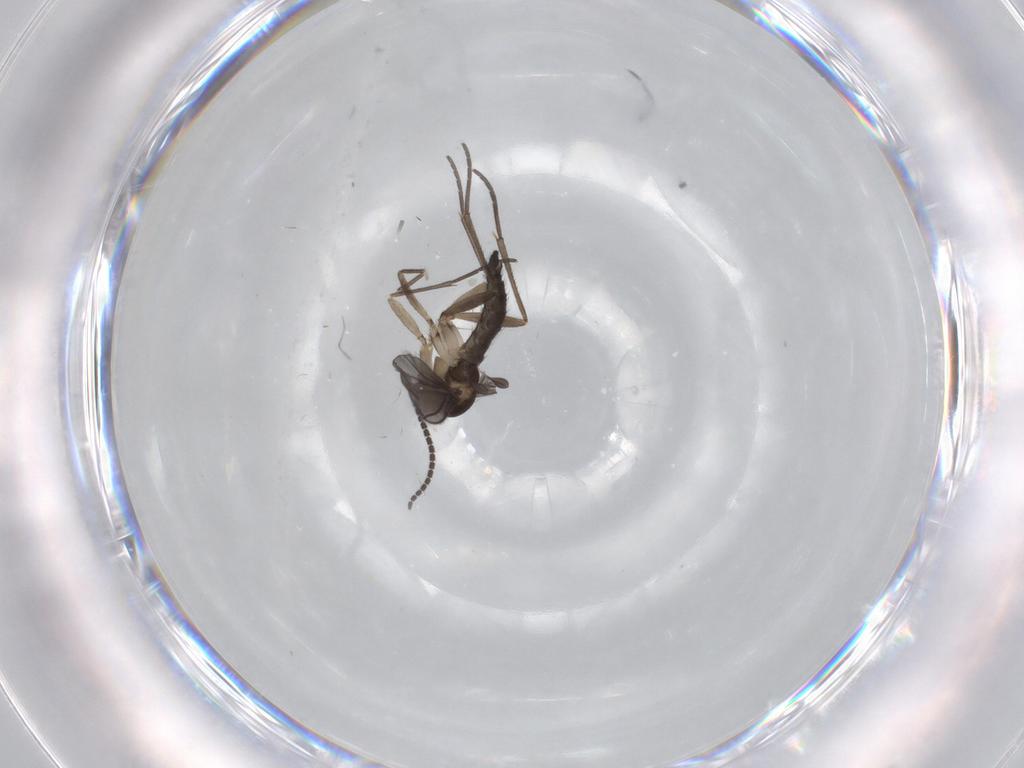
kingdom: Animalia
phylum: Arthropoda
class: Insecta
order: Diptera
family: Sciaridae
